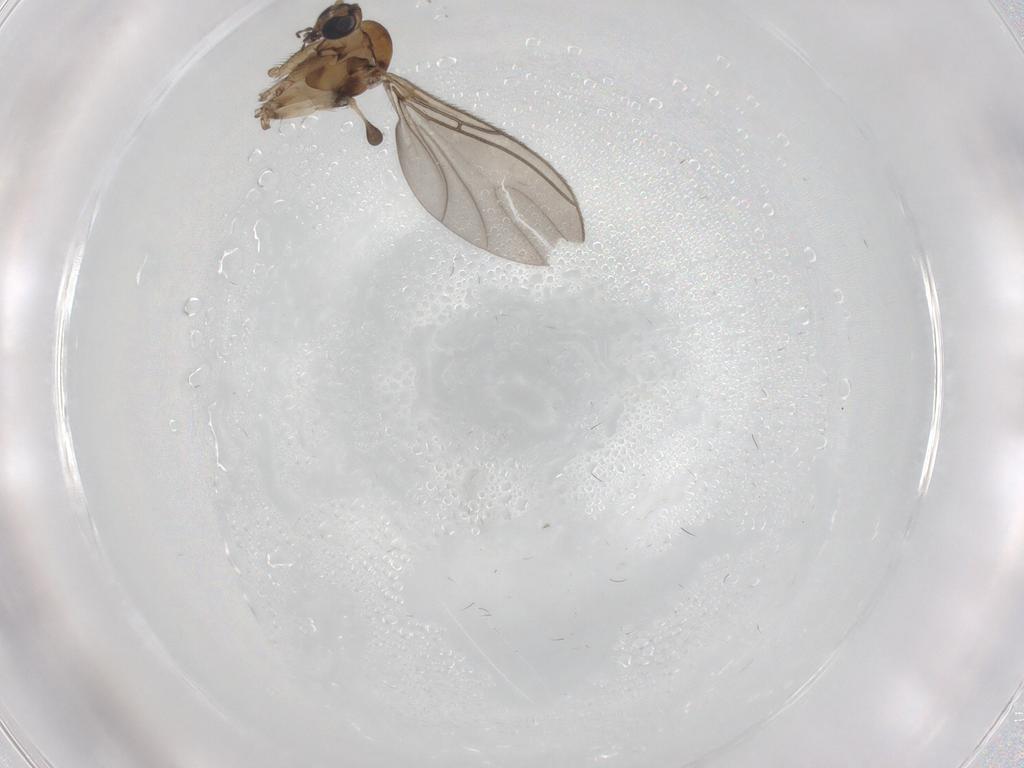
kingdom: Animalia
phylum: Arthropoda
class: Insecta
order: Diptera
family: Sciaridae
